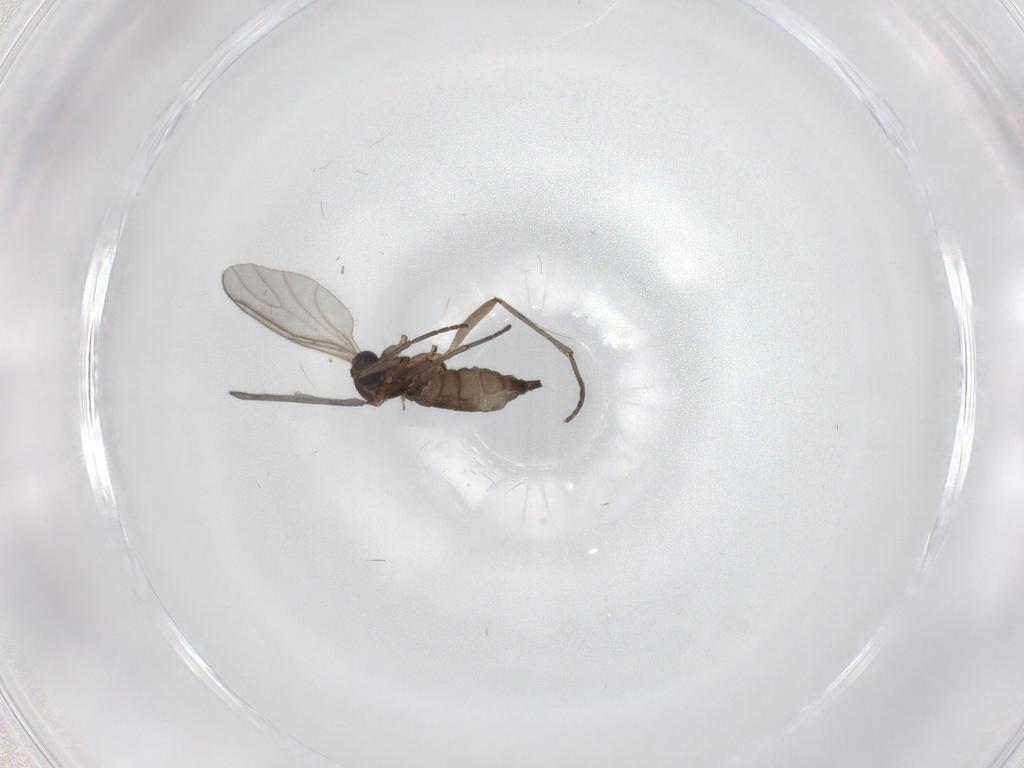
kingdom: Animalia
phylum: Arthropoda
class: Insecta
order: Diptera
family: Sciaridae
